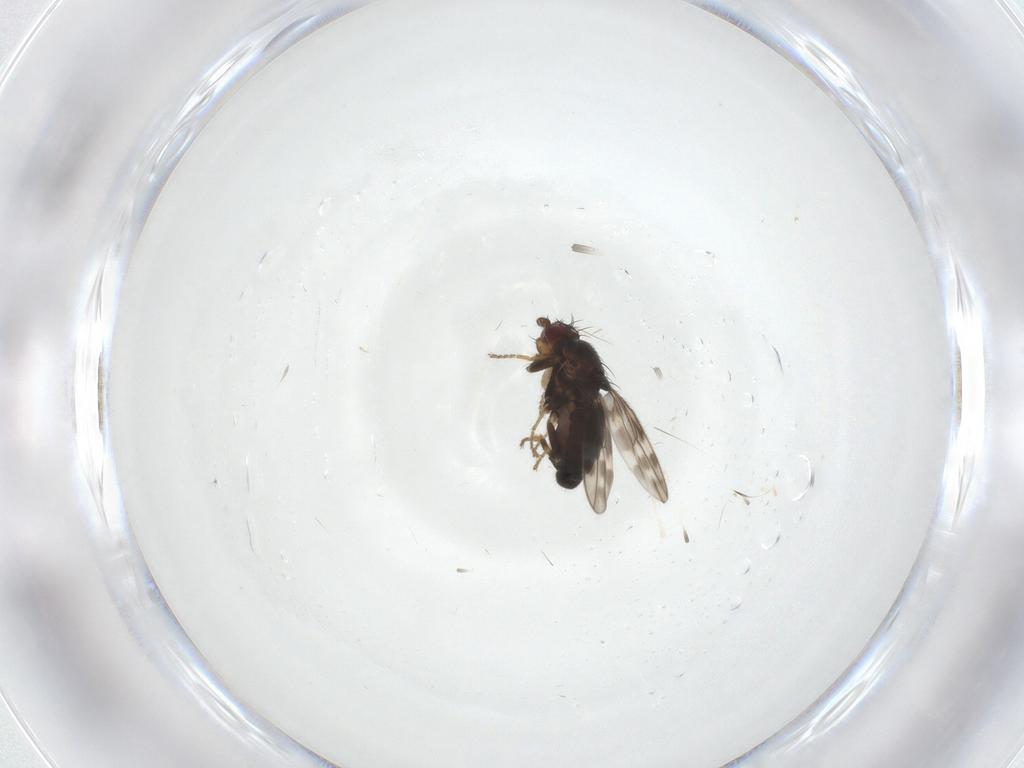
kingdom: Animalia
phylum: Arthropoda
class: Insecta
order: Diptera
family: Sphaeroceridae
